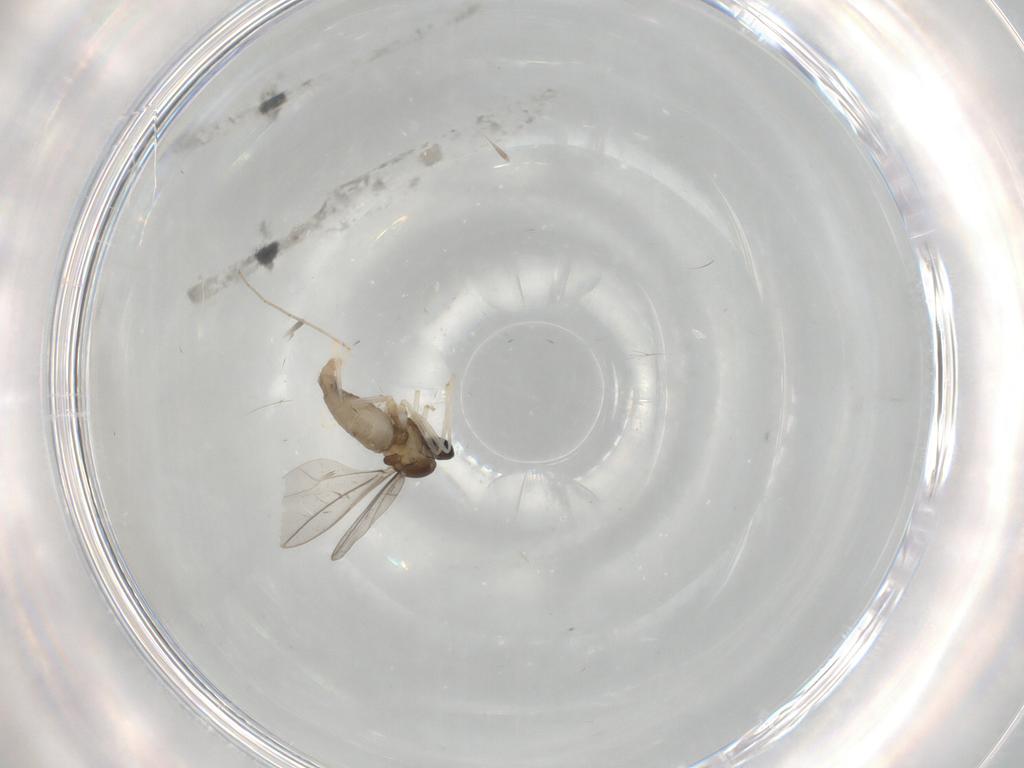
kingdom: Animalia
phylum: Arthropoda
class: Insecta
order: Diptera
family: Cecidomyiidae
